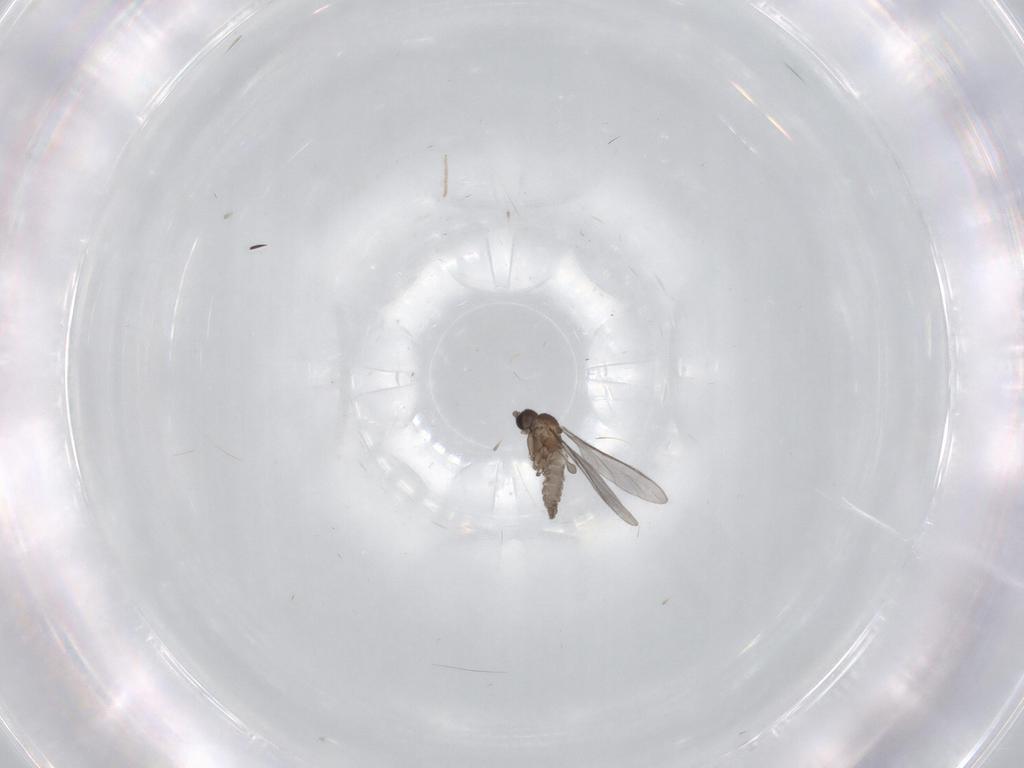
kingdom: Animalia
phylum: Arthropoda
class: Insecta
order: Diptera
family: Sciaridae
